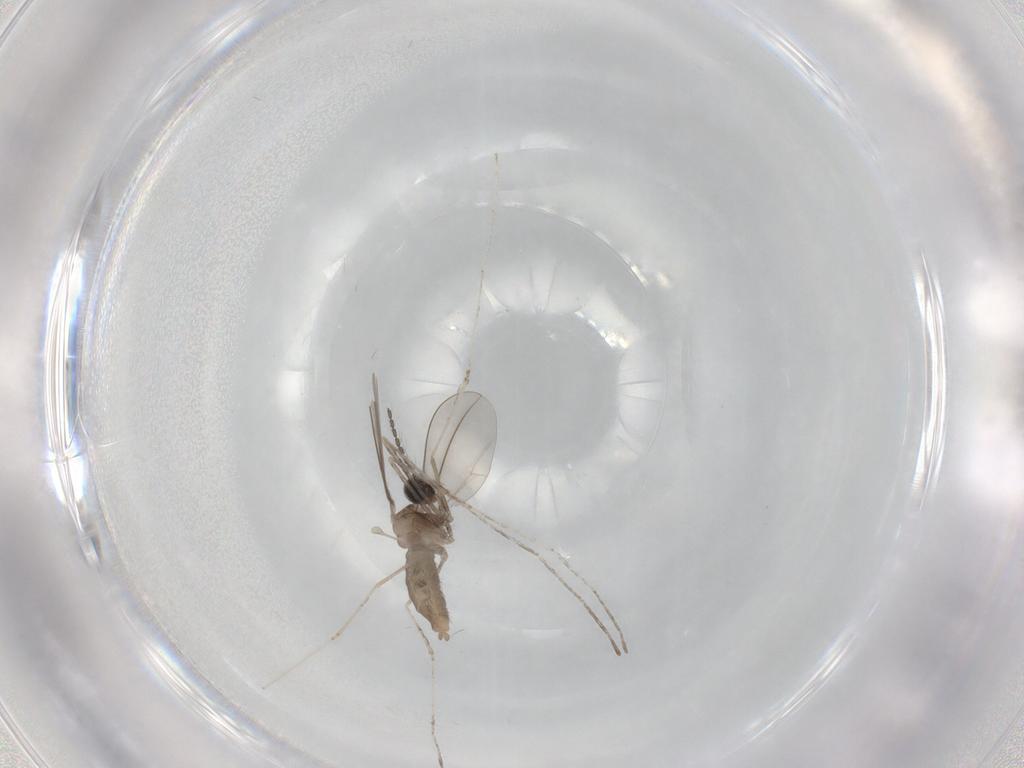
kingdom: Animalia
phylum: Arthropoda
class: Insecta
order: Diptera
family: Cecidomyiidae
